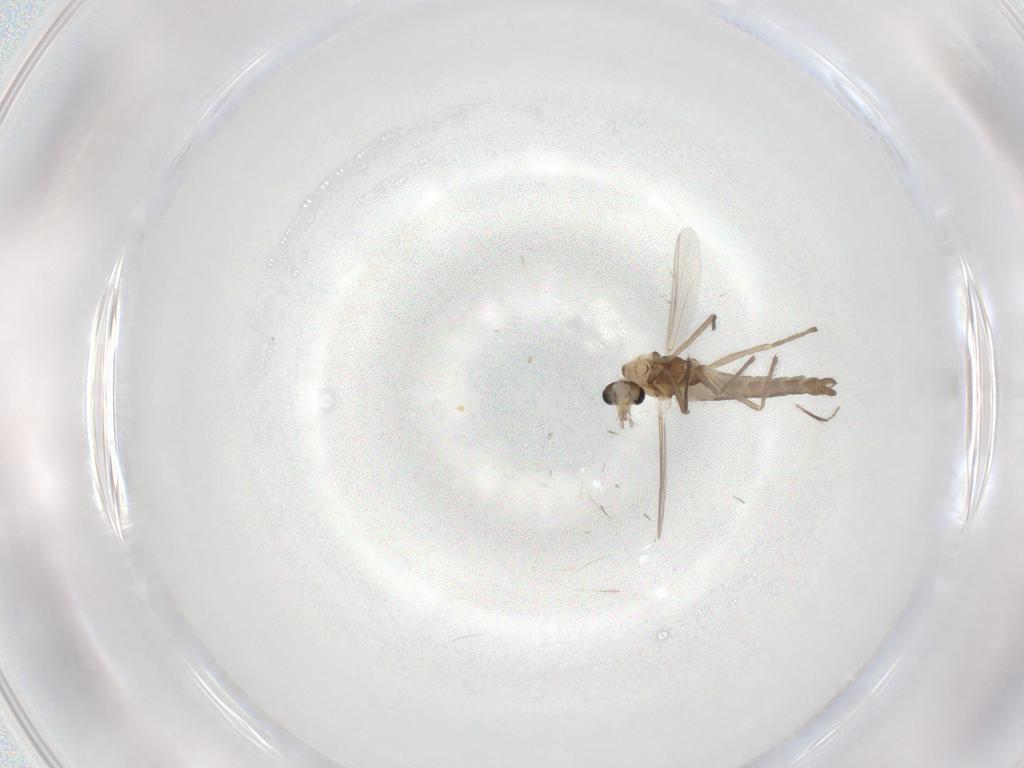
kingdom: Animalia
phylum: Arthropoda
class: Insecta
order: Diptera
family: Chironomidae
